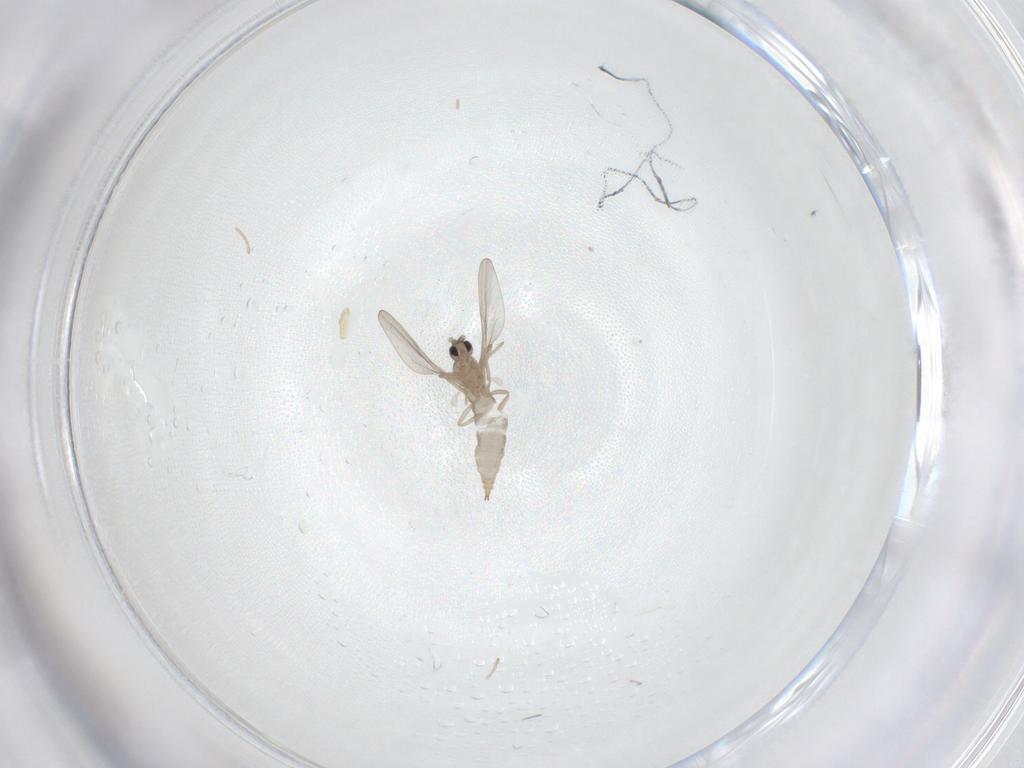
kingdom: Animalia
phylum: Arthropoda
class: Insecta
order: Diptera
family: Cecidomyiidae
